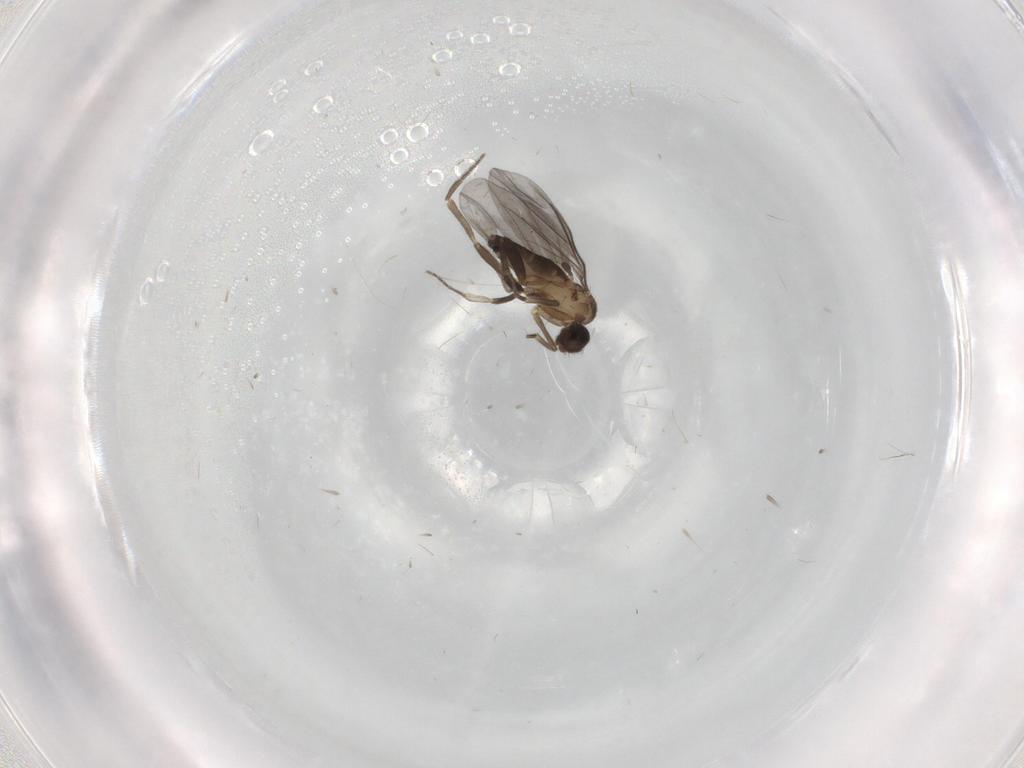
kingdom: Animalia
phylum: Arthropoda
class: Insecta
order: Diptera
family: Phoridae
